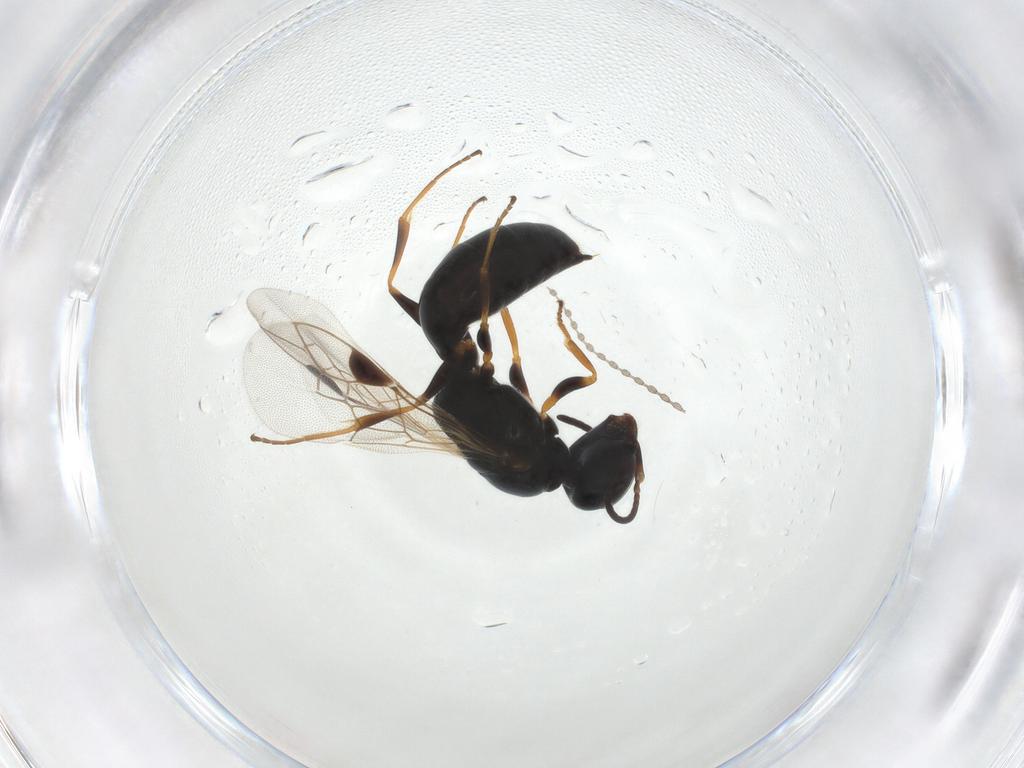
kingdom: Animalia
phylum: Arthropoda
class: Insecta
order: Hymenoptera
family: Pemphredonidae
